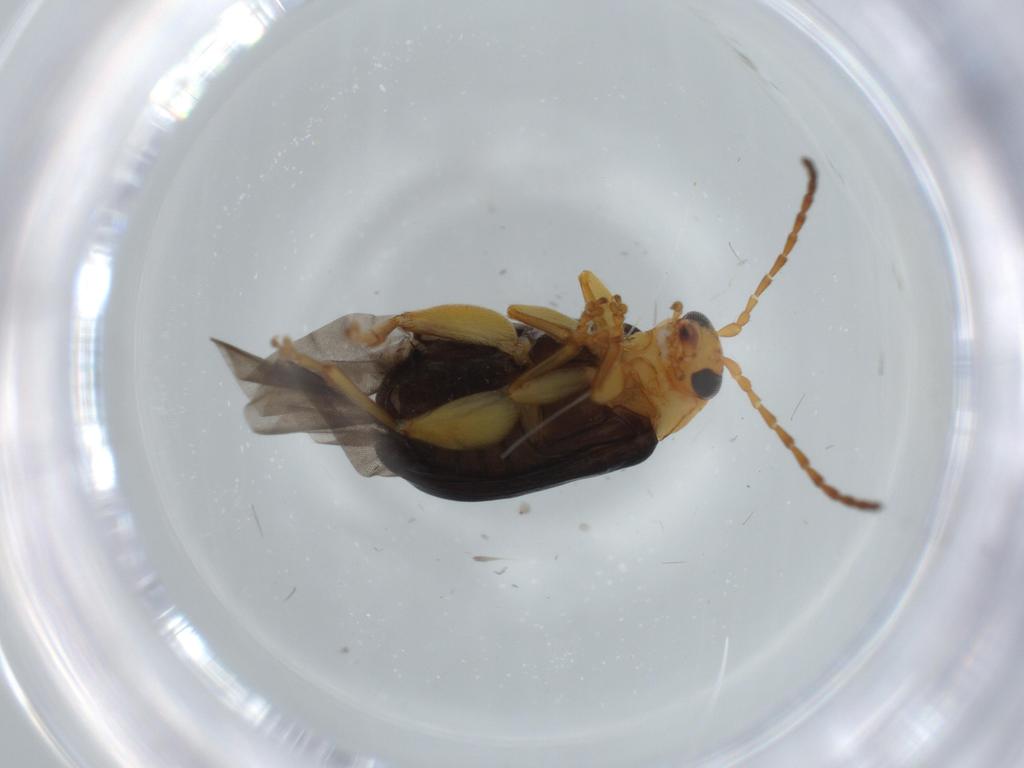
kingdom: Animalia
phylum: Arthropoda
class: Insecta
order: Coleoptera
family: Chrysomelidae
